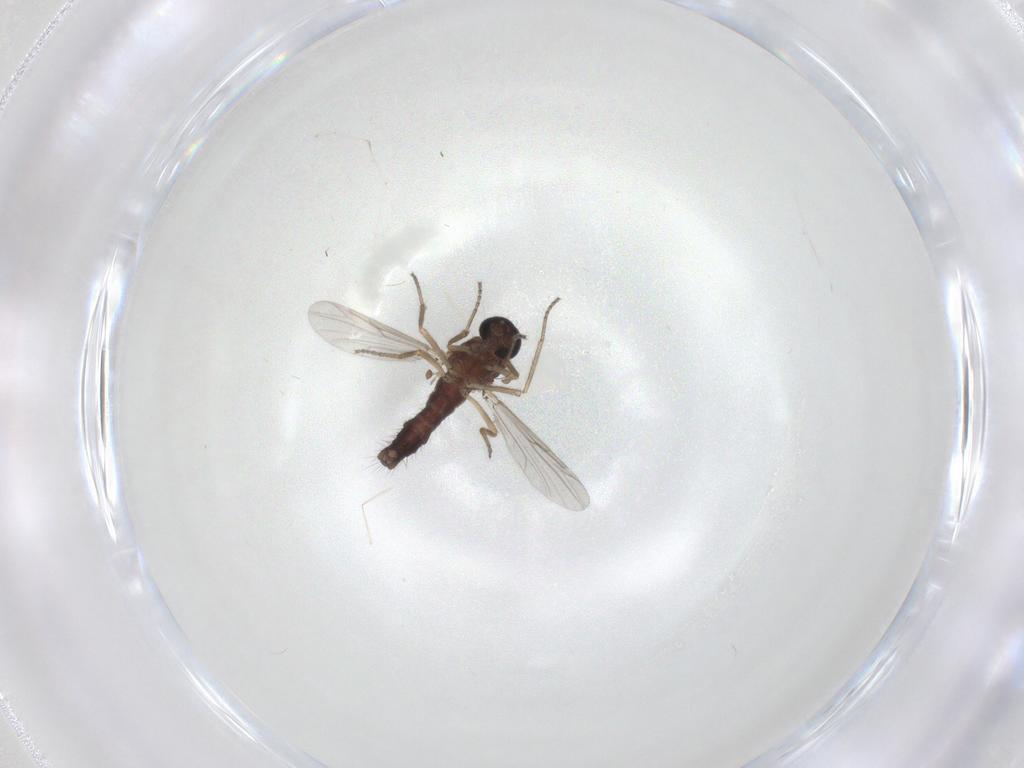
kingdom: Animalia
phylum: Arthropoda
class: Insecta
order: Diptera
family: Ceratopogonidae
